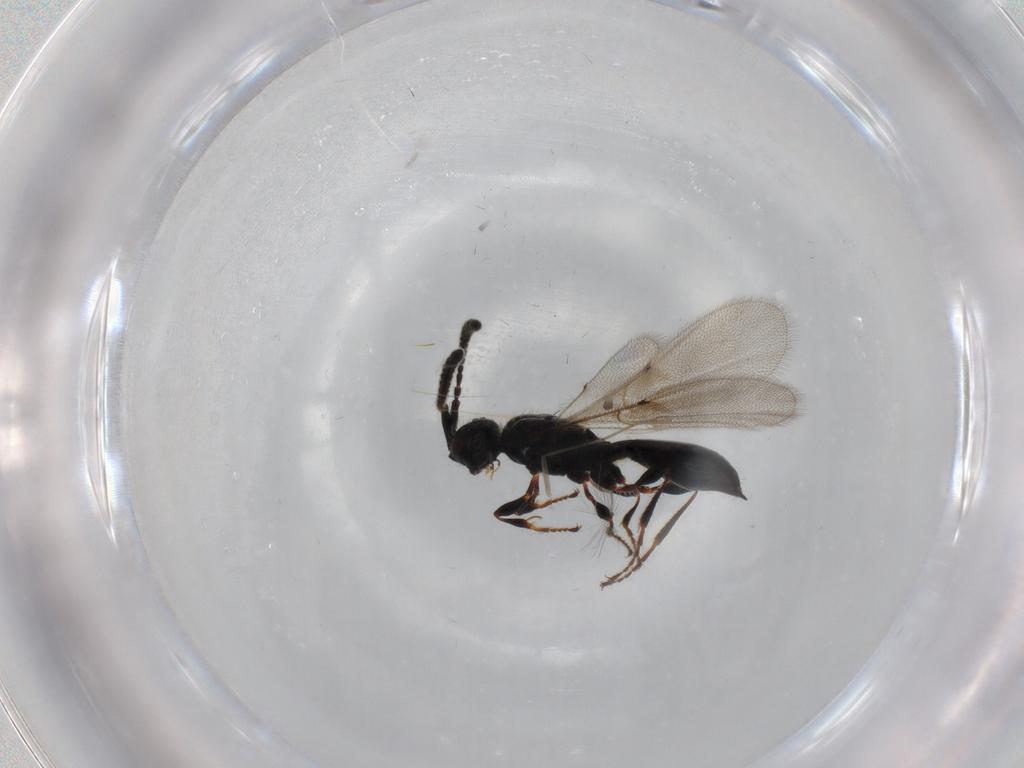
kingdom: Animalia
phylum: Arthropoda
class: Insecta
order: Hymenoptera
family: Diapriidae
